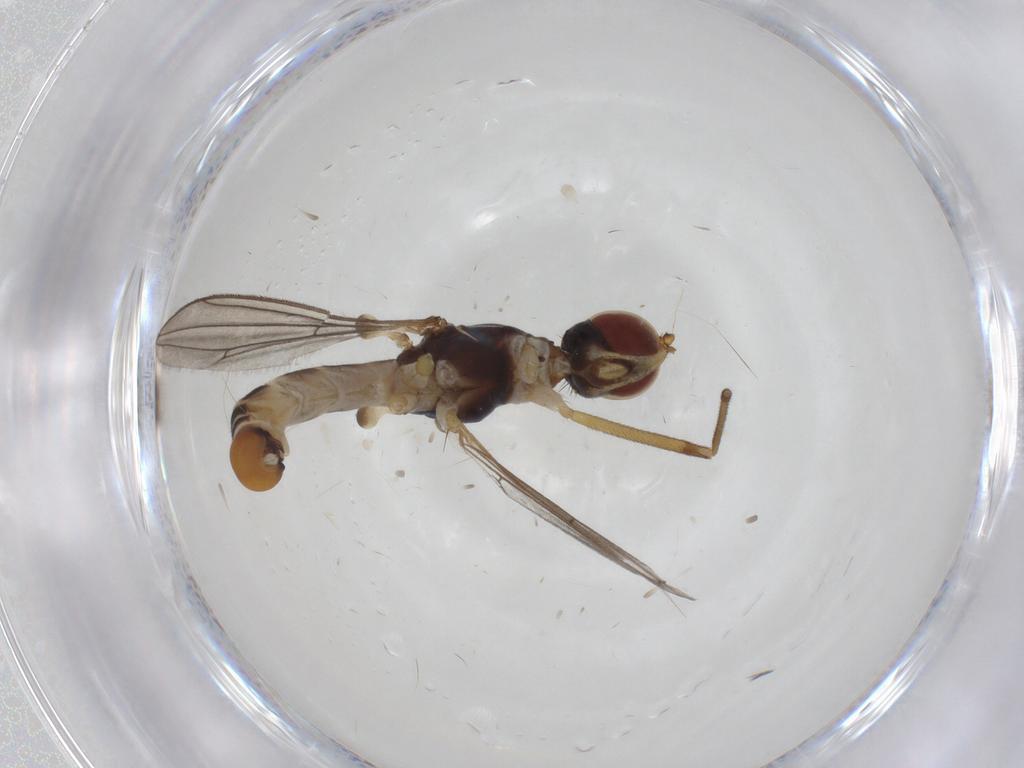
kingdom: Animalia
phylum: Arthropoda
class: Insecta
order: Diptera
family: Micropezidae
